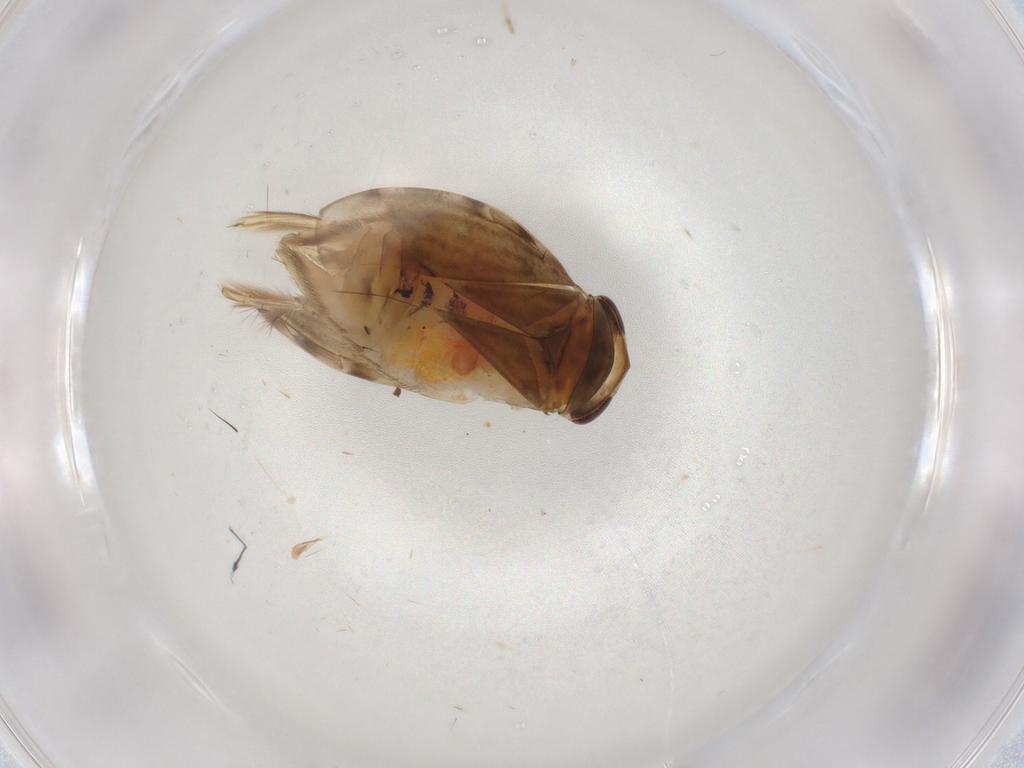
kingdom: Animalia
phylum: Arthropoda
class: Insecta
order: Hemiptera
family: Corixidae
